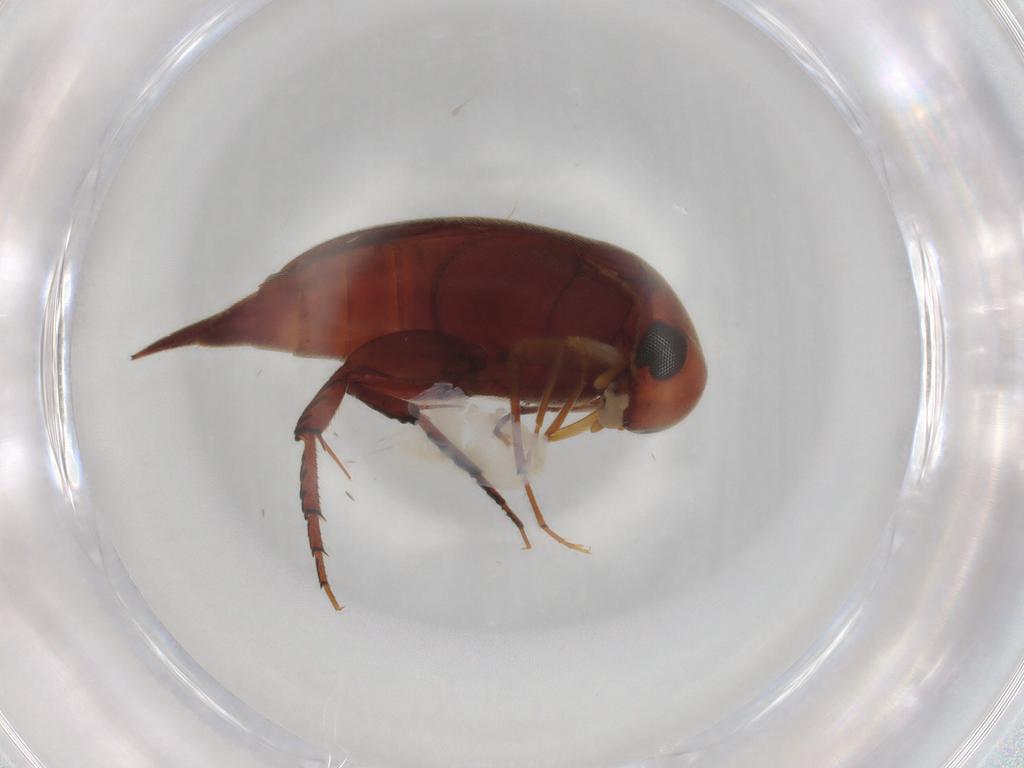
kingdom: Animalia
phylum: Arthropoda
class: Insecta
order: Coleoptera
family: Mordellidae
